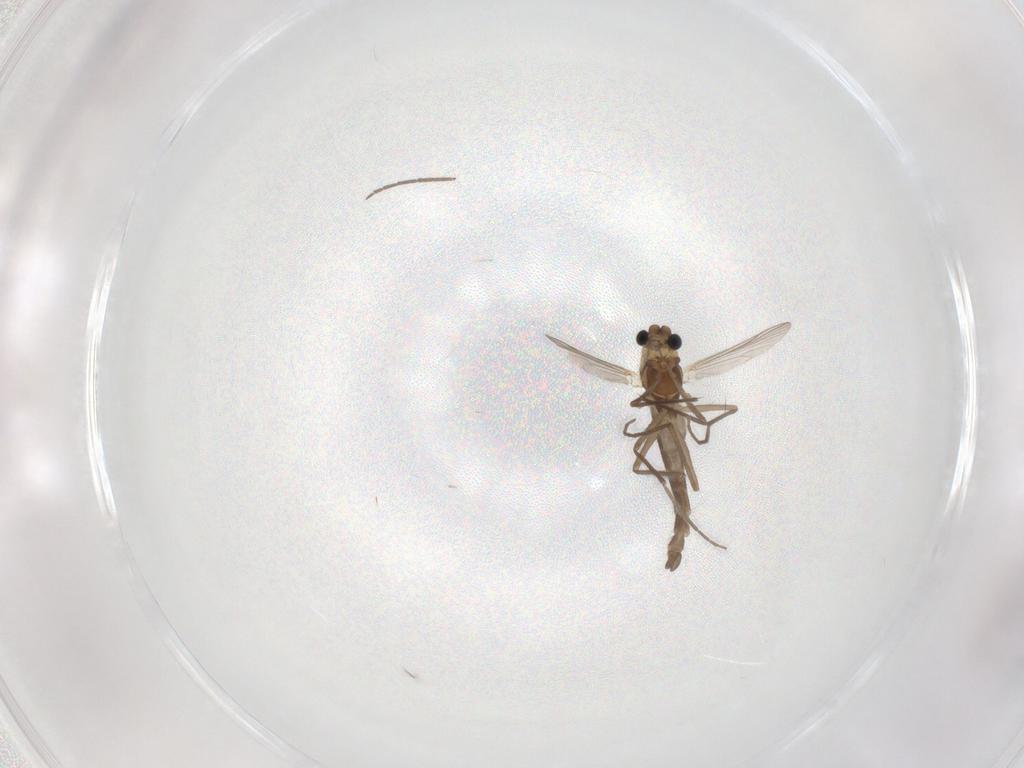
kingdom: Animalia
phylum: Arthropoda
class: Insecta
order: Diptera
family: Chironomidae
